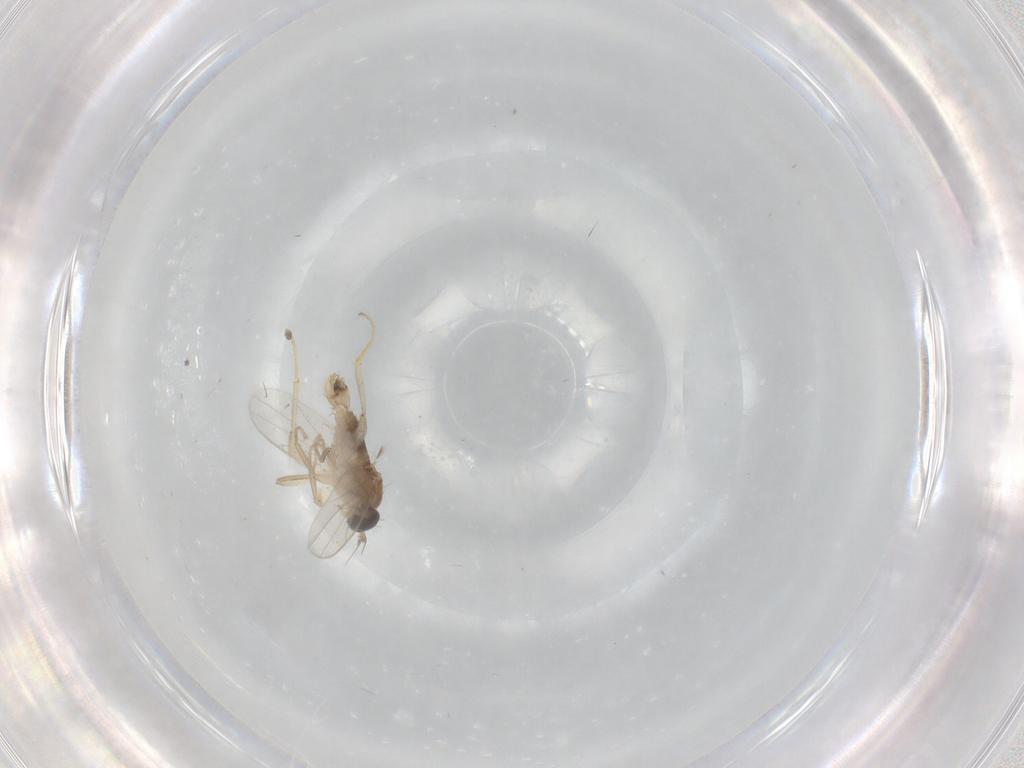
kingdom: Animalia
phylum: Arthropoda
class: Insecta
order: Diptera
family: Hybotidae
